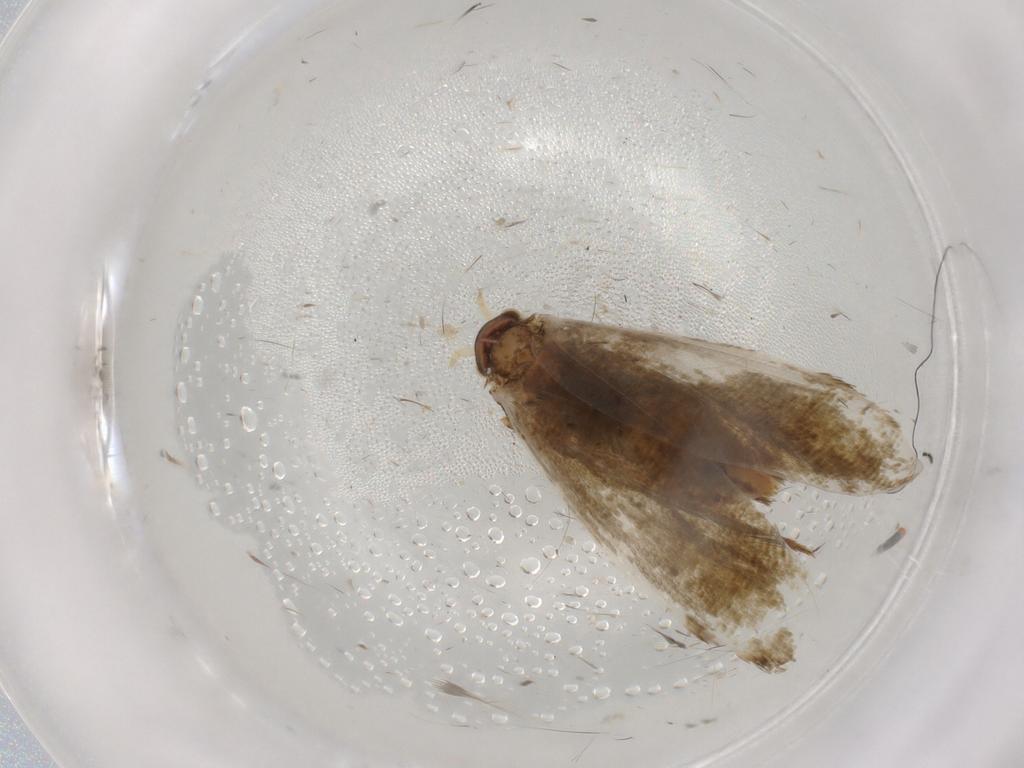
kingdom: Animalia
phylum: Arthropoda
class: Insecta
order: Lepidoptera
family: Tineidae
